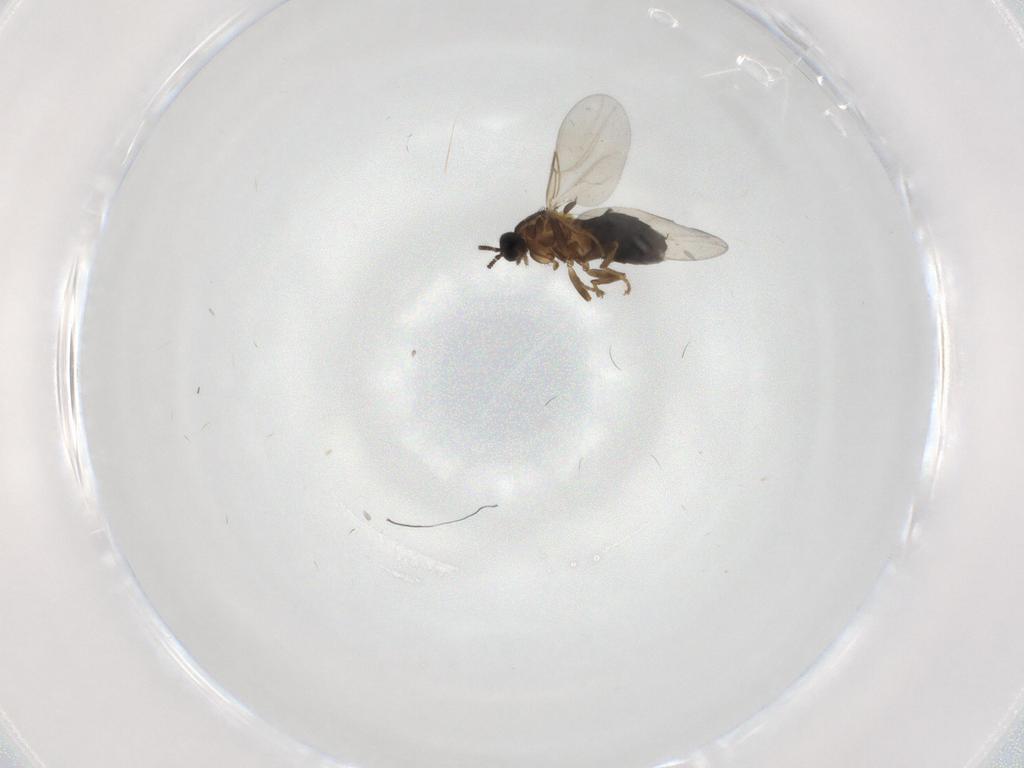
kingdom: Animalia
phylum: Arthropoda
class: Insecta
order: Diptera
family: Scatopsidae
